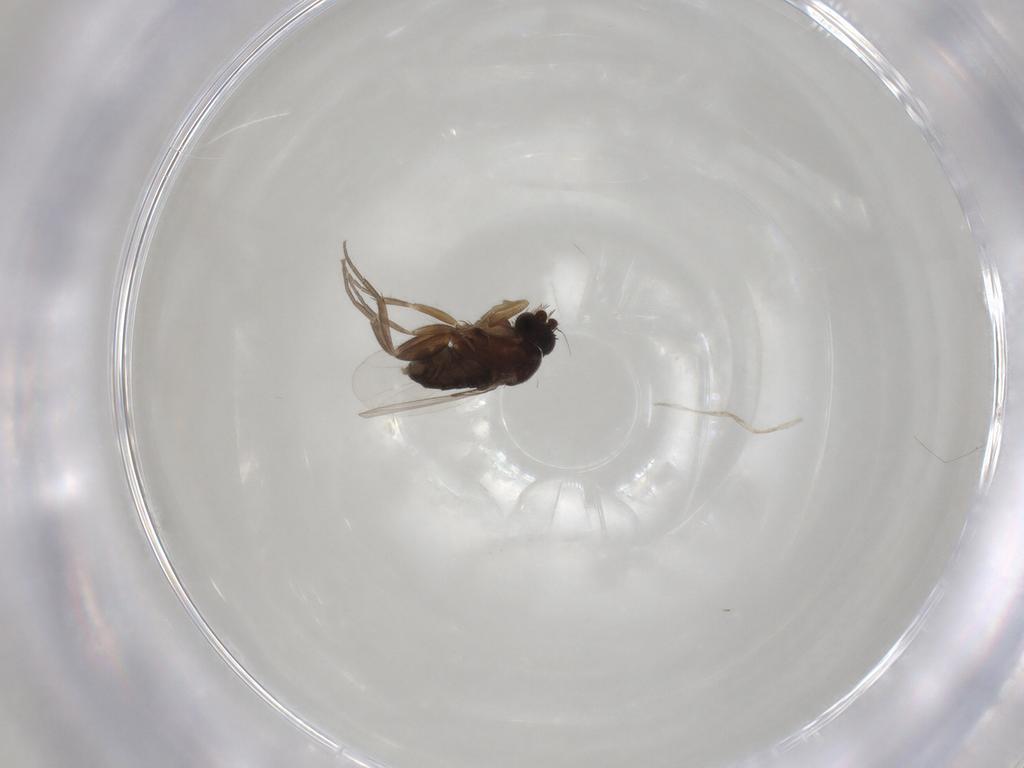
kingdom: Animalia
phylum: Arthropoda
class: Insecta
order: Diptera
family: Phoridae
